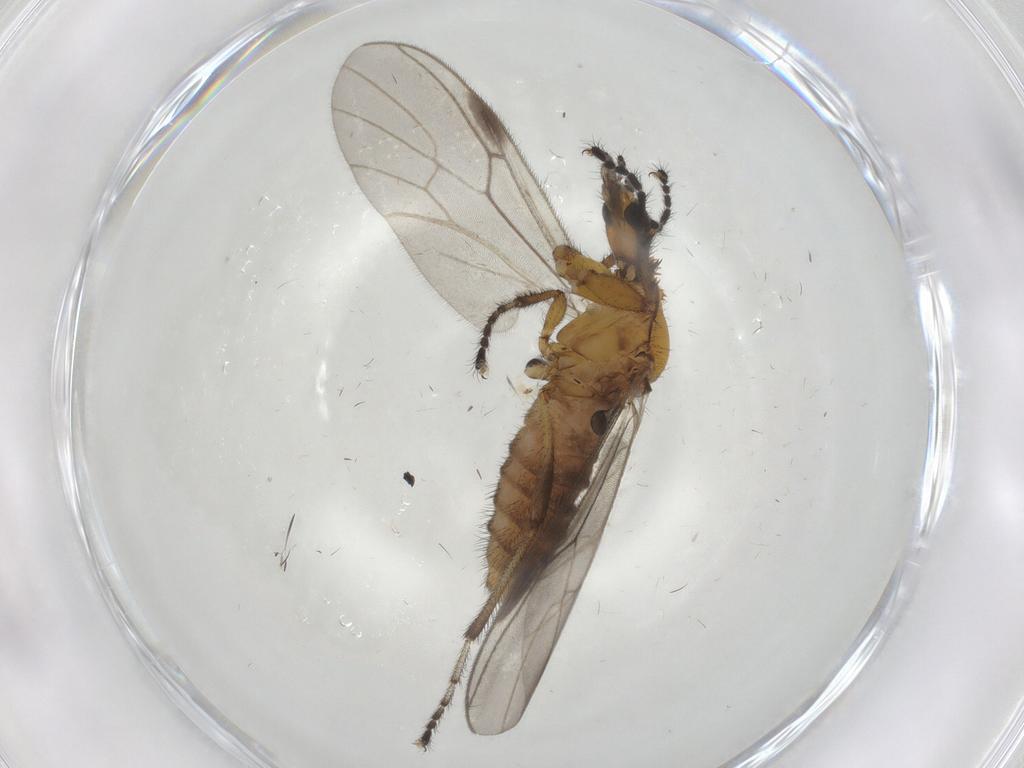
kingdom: Animalia
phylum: Arthropoda
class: Insecta
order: Diptera
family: Bibionidae
